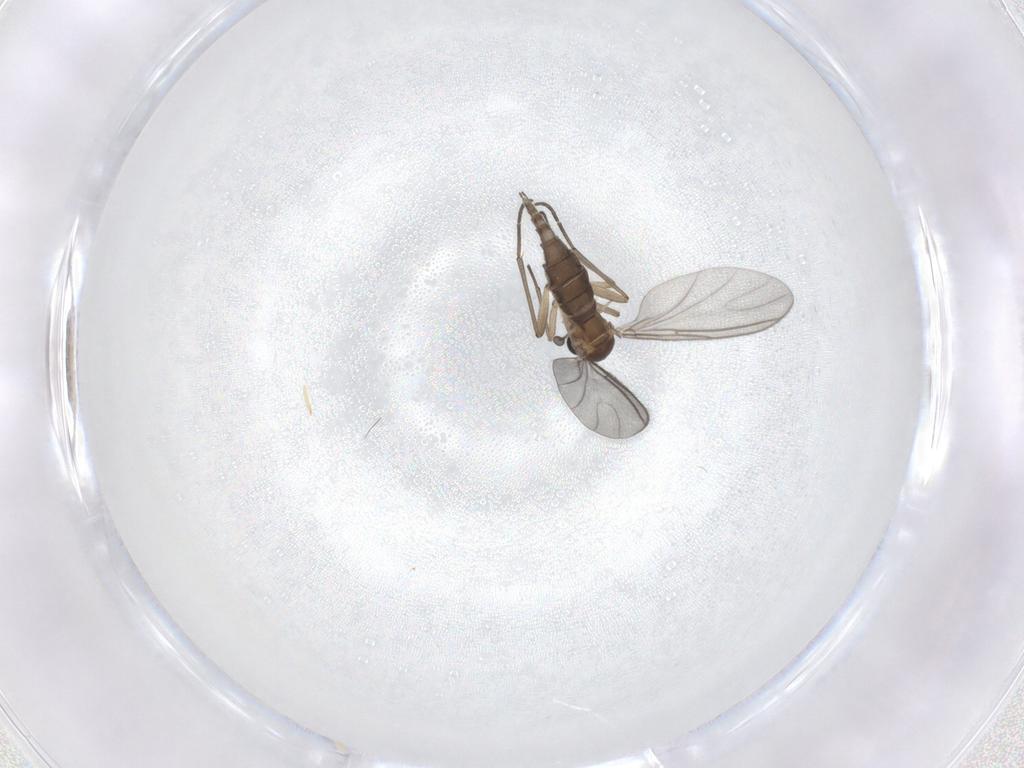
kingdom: Animalia
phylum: Arthropoda
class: Insecta
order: Diptera
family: Sciaridae
